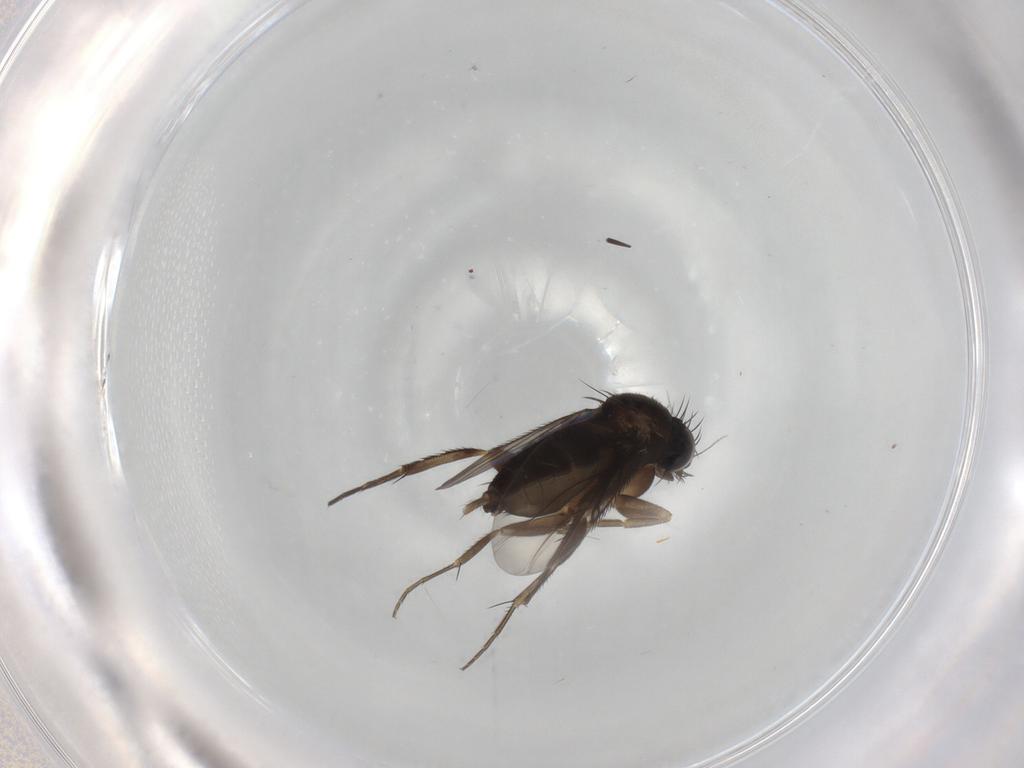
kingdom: Animalia
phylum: Arthropoda
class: Insecta
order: Diptera
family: Phoridae
